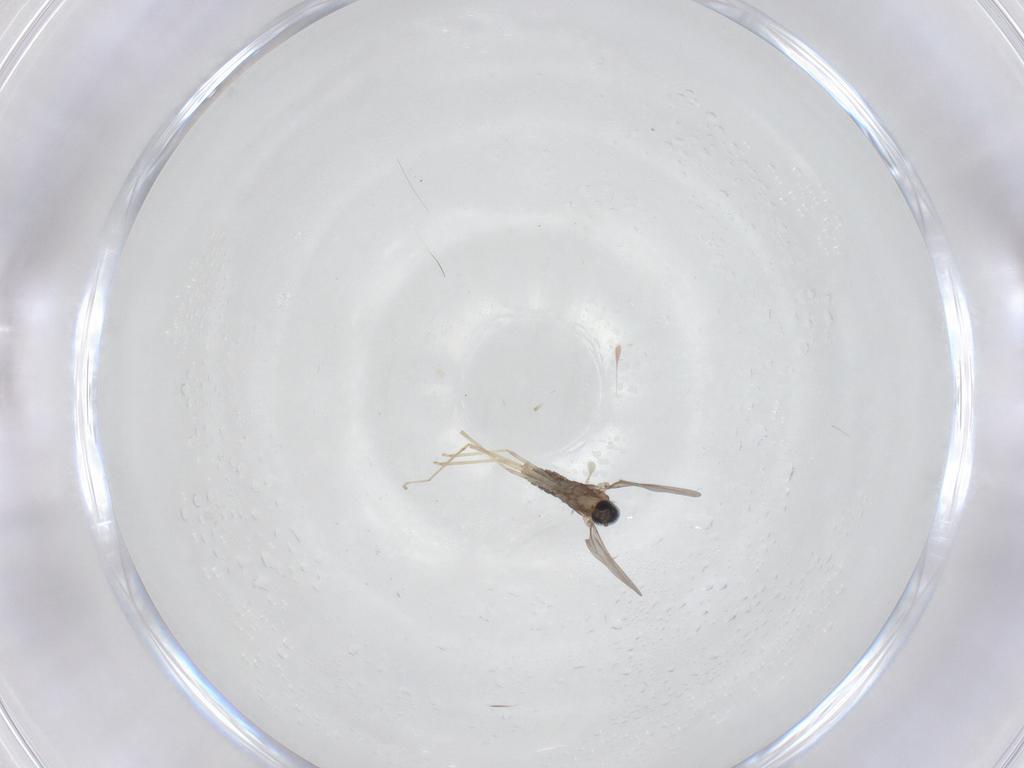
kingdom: Animalia
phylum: Arthropoda
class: Insecta
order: Diptera
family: Cecidomyiidae
